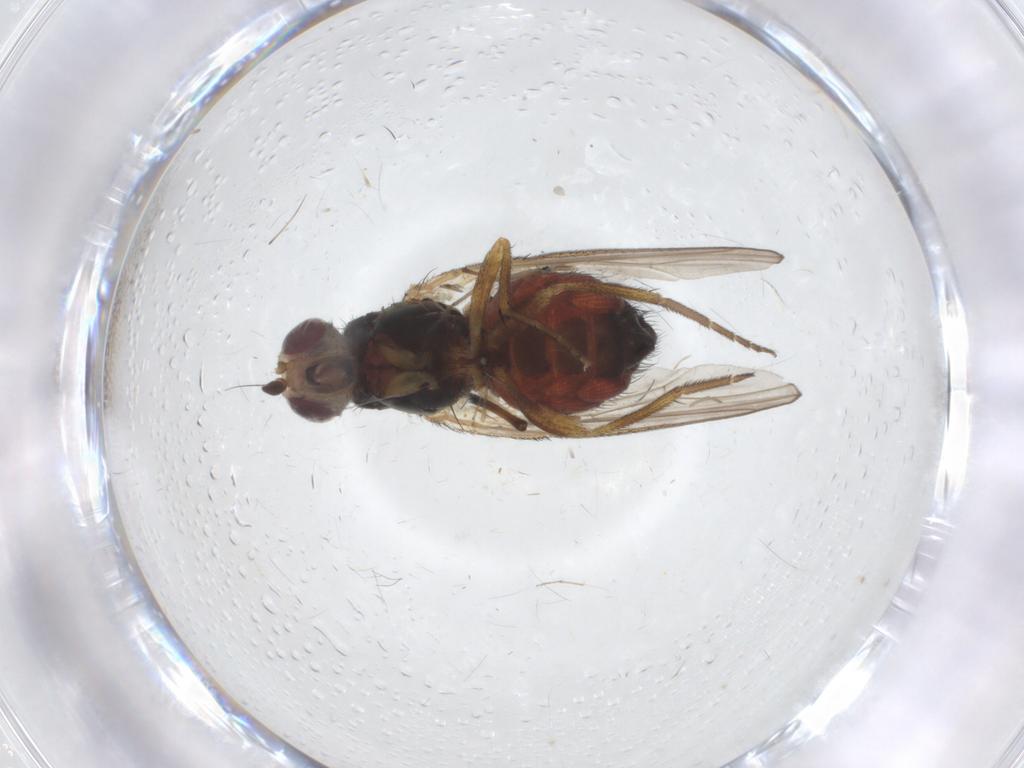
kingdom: Animalia
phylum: Arthropoda
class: Insecta
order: Diptera
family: Heleomyzidae
